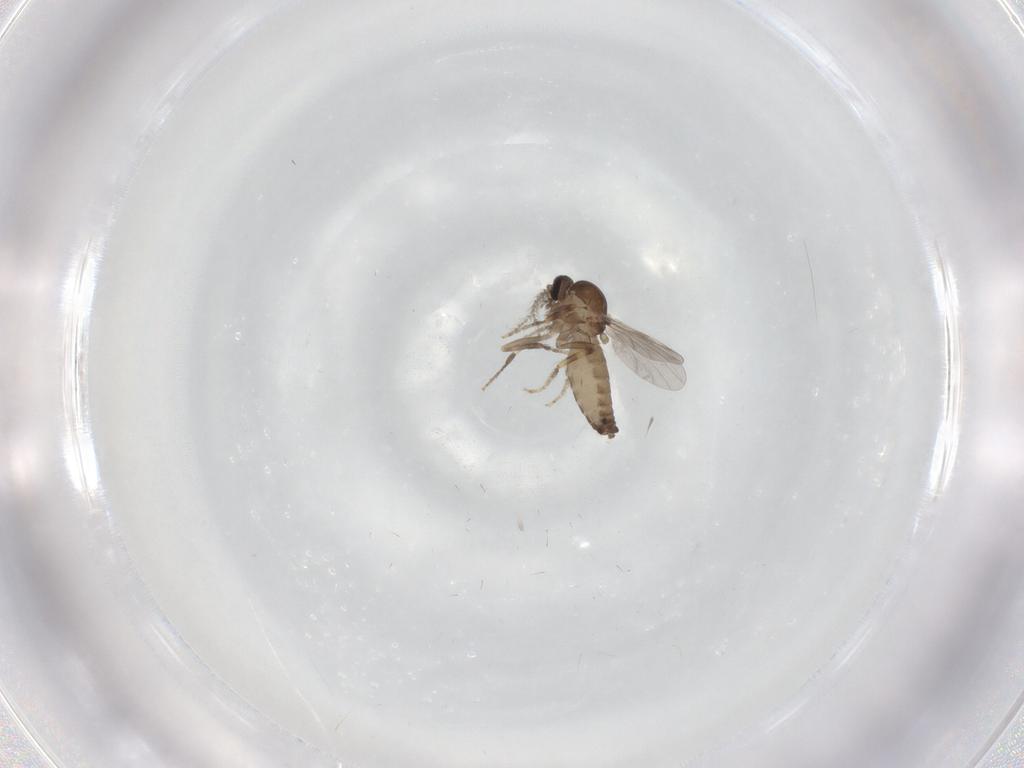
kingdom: Animalia
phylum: Arthropoda
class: Insecta
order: Diptera
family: Ceratopogonidae
